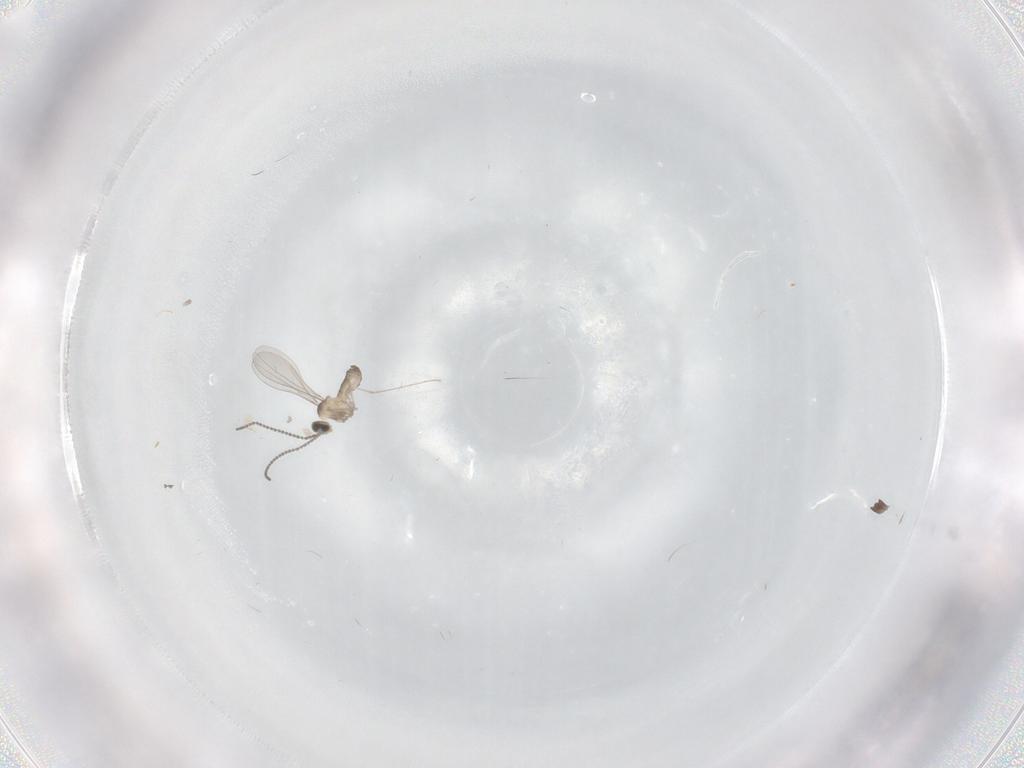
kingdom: Animalia
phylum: Arthropoda
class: Insecta
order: Diptera
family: Cecidomyiidae
